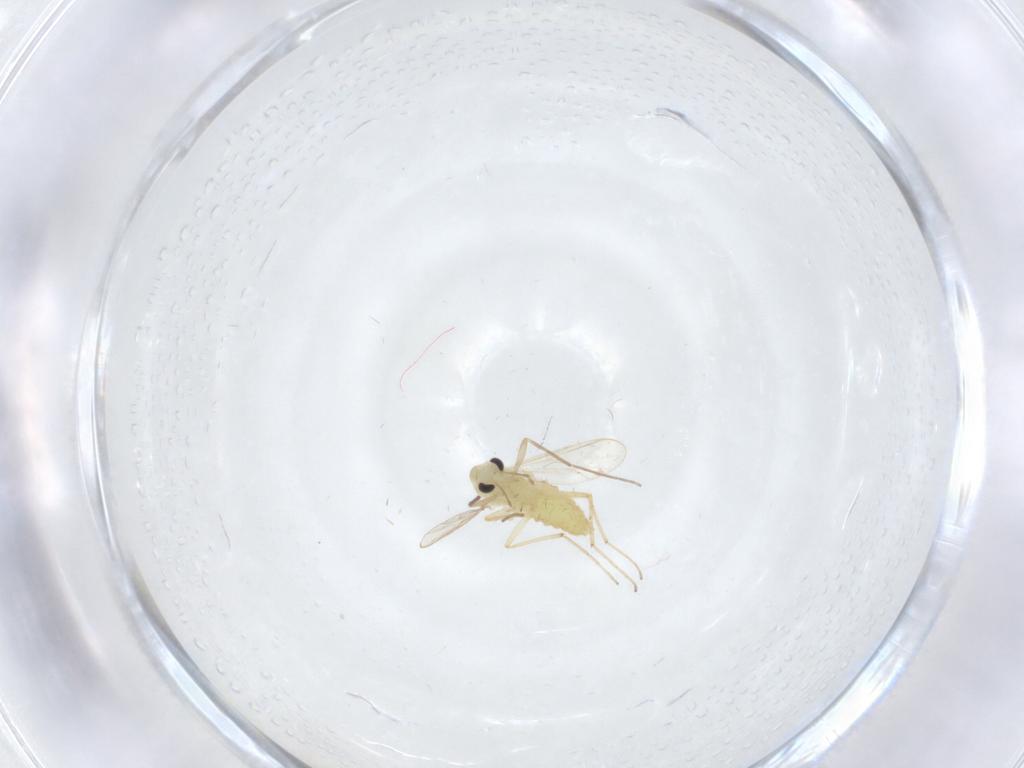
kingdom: Animalia
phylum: Arthropoda
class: Insecta
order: Diptera
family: Chironomidae
